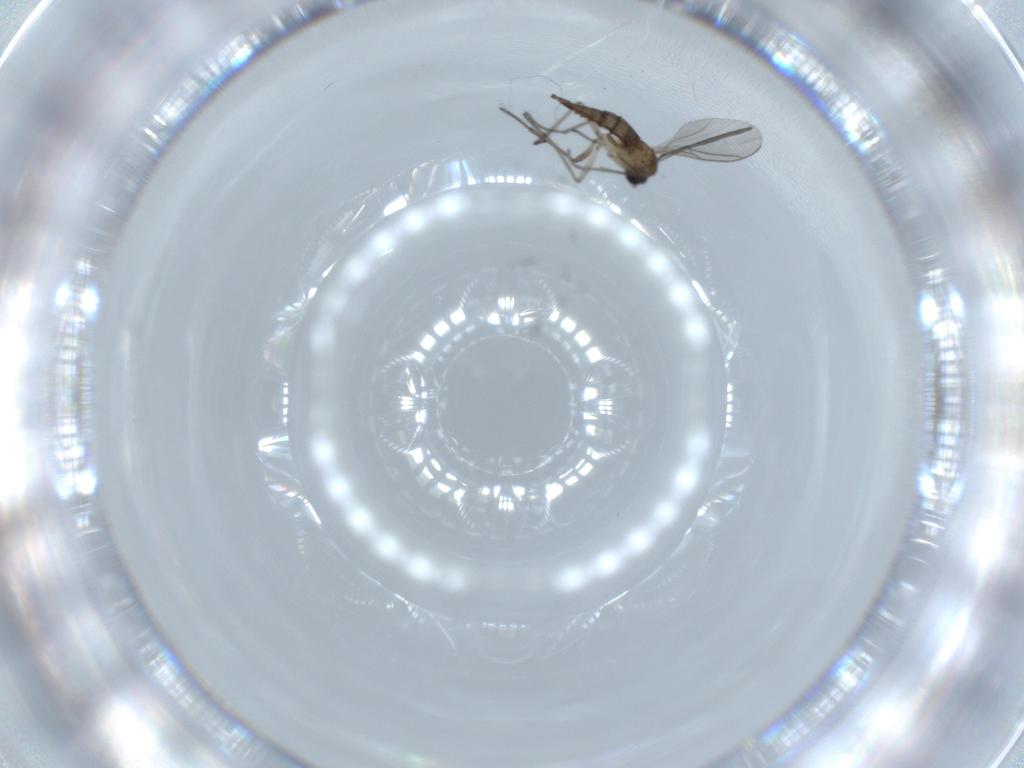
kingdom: Animalia
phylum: Arthropoda
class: Insecta
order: Diptera
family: Sciaridae
